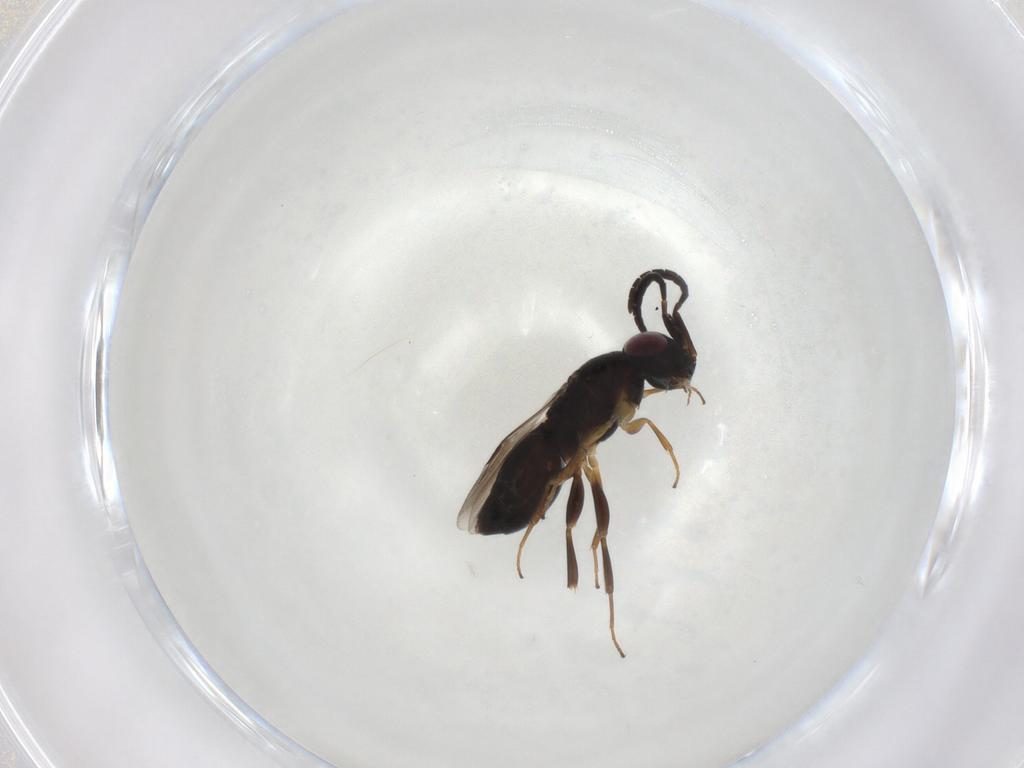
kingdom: Animalia
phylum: Arthropoda
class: Insecta
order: Hymenoptera
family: Megaspilidae
